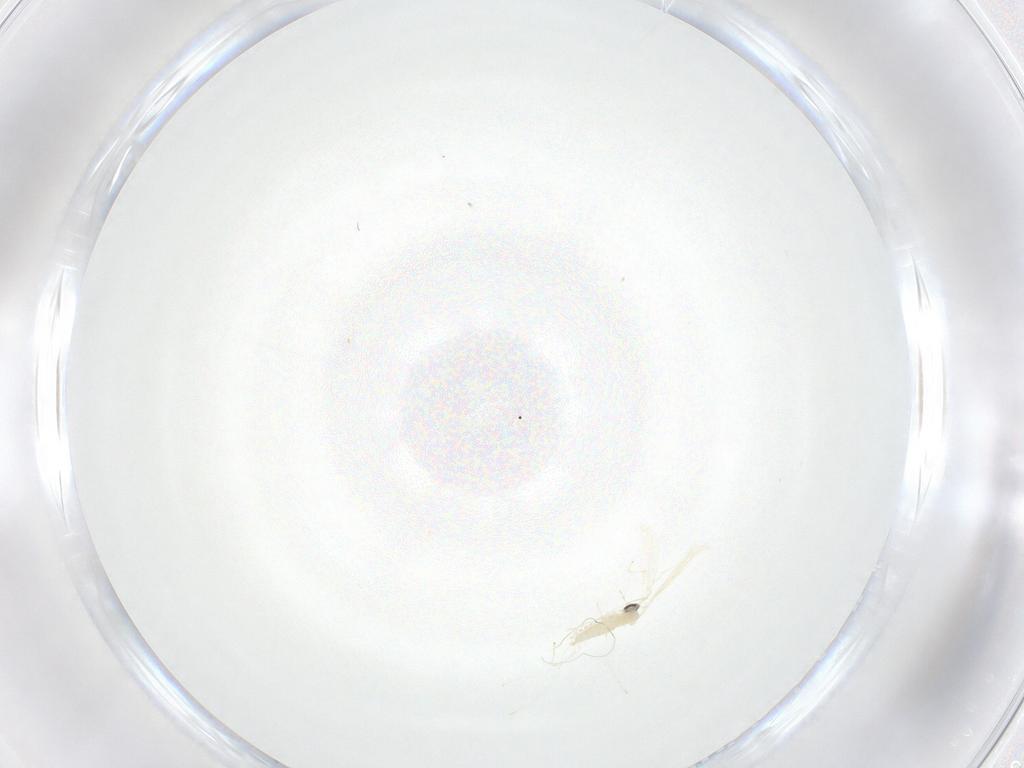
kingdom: Animalia
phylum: Arthropoda
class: Insecta
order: Diptera
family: Cecidomyiidae
